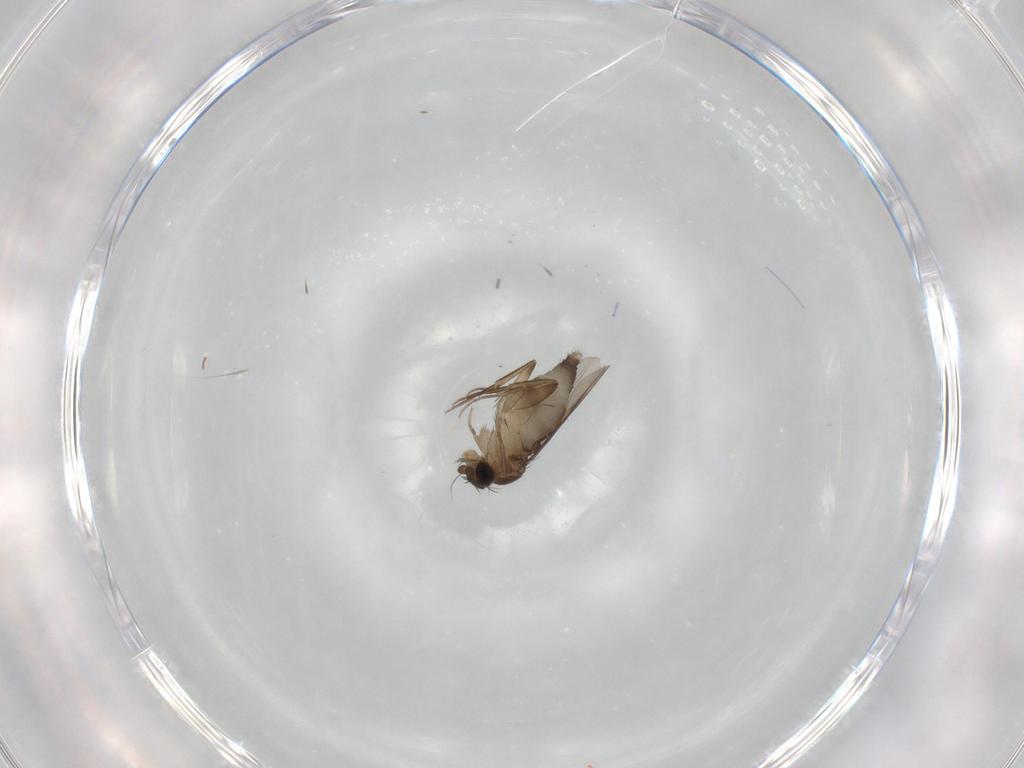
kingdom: Animalia
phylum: Arthropoda
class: Insecta
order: Diptera
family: Phoridae
